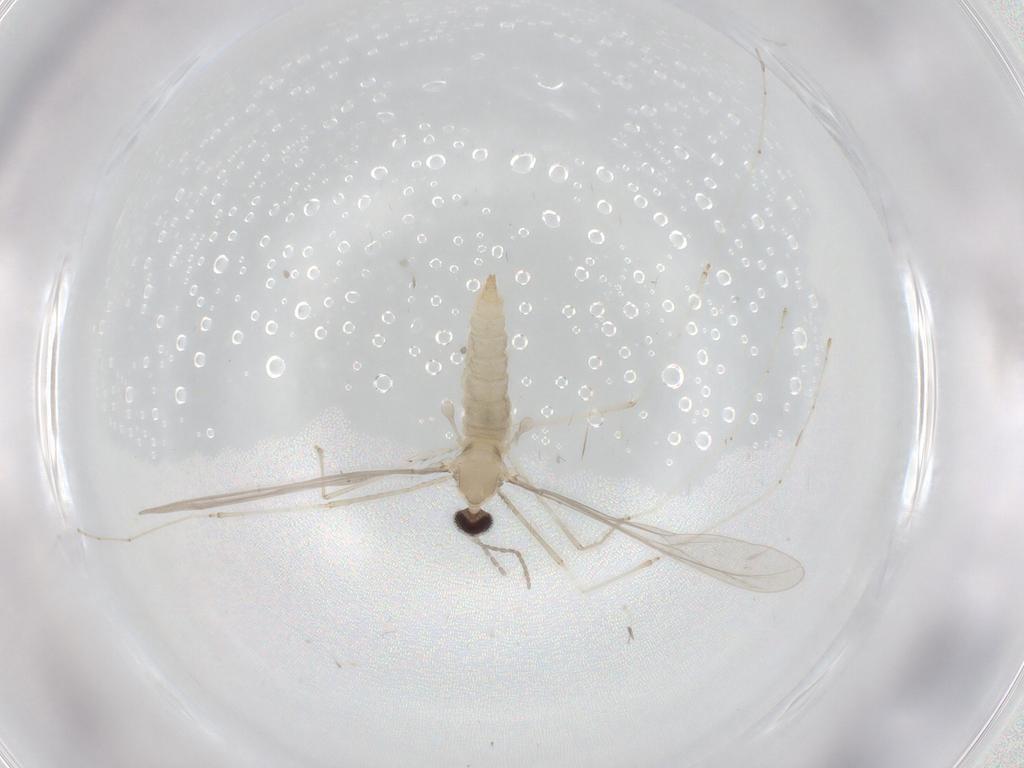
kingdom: Animalia
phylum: Arthropoda
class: Insecta
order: Diptera
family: Cecidomyiidae
